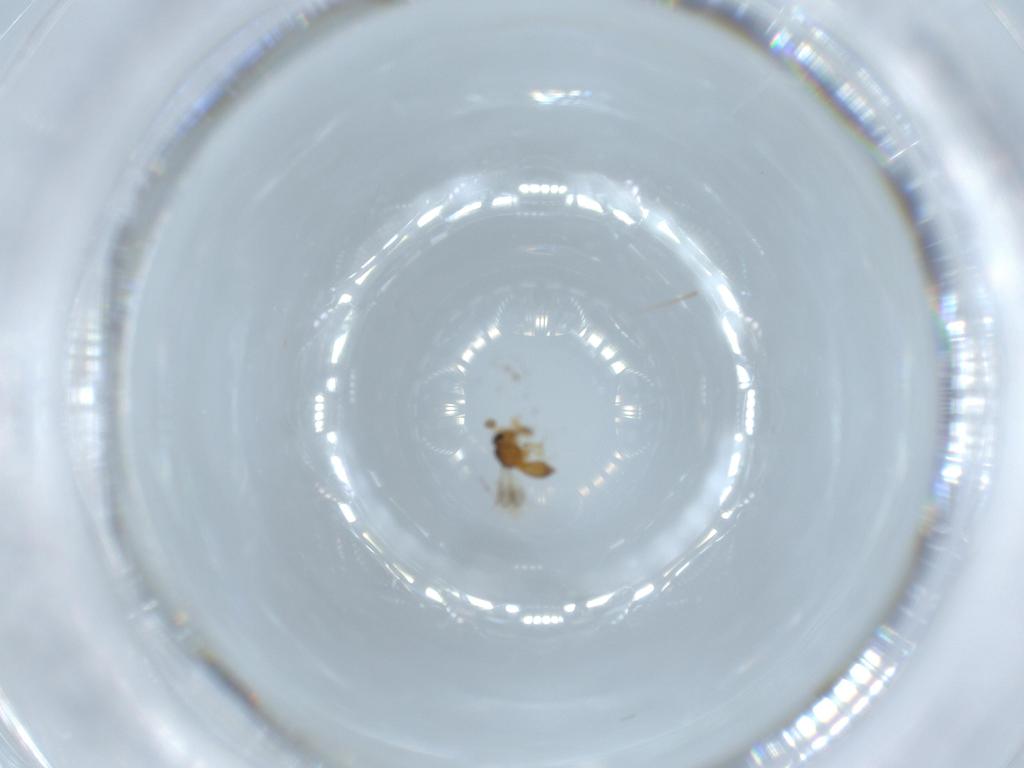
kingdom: Animalia
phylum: Arthropoda
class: Insecta
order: Hymenoptera
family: Scelionidae
